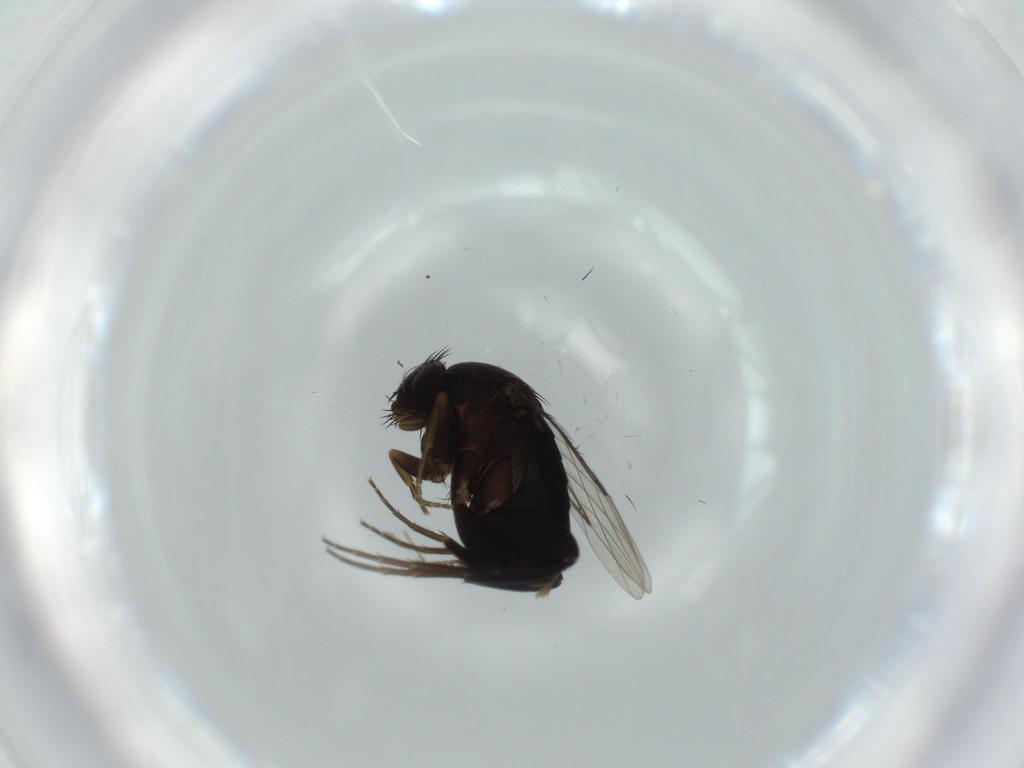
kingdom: Animalia
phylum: Arthropoda
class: Insecta
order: Diptera
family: Phoridae
